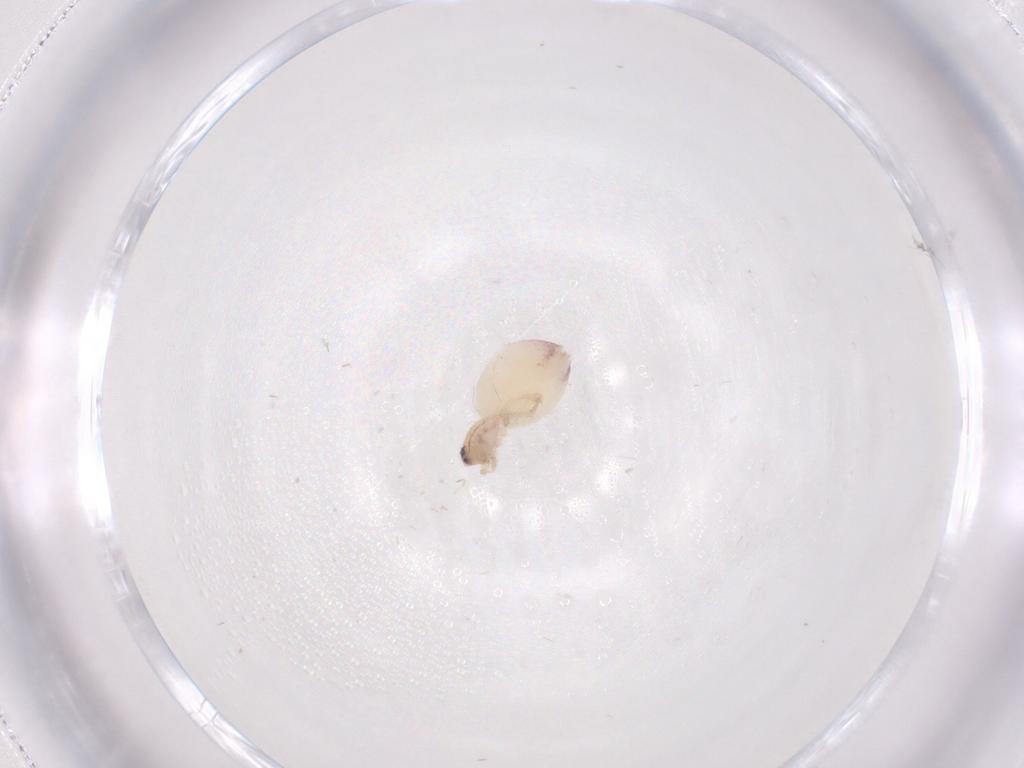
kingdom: Animalia
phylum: Arthropoda
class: Arachnida
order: Araneae
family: Dictynidae
